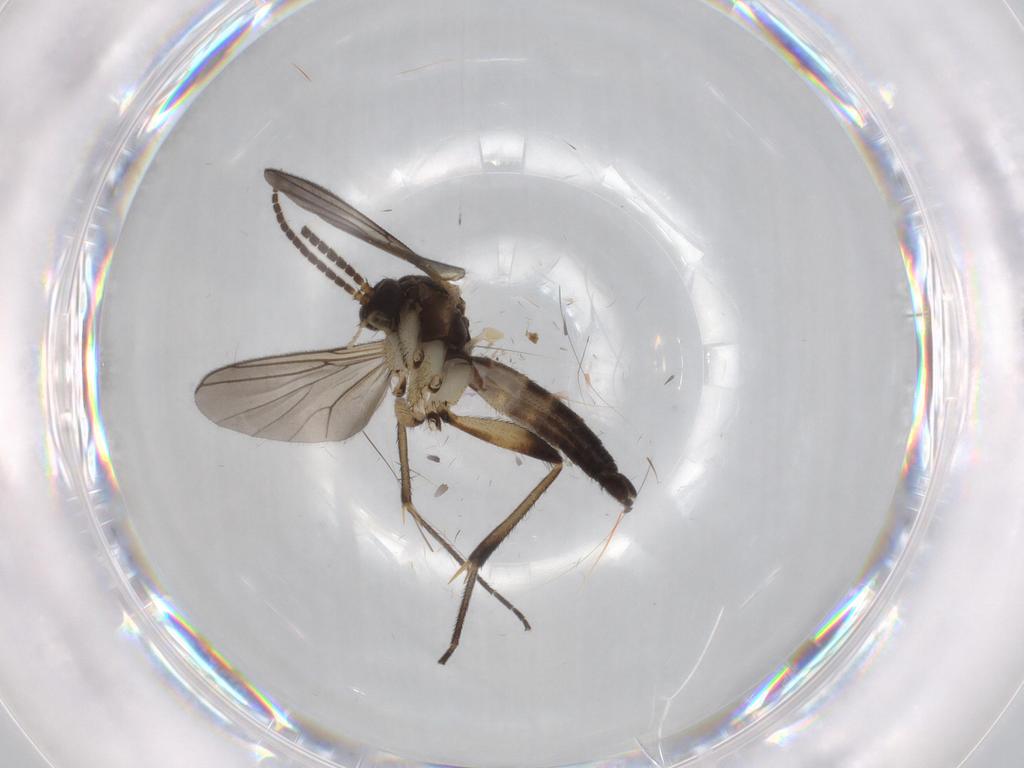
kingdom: Animalia
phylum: Arthropoda
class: Insecta
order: Diptera
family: Mycetophilidae
